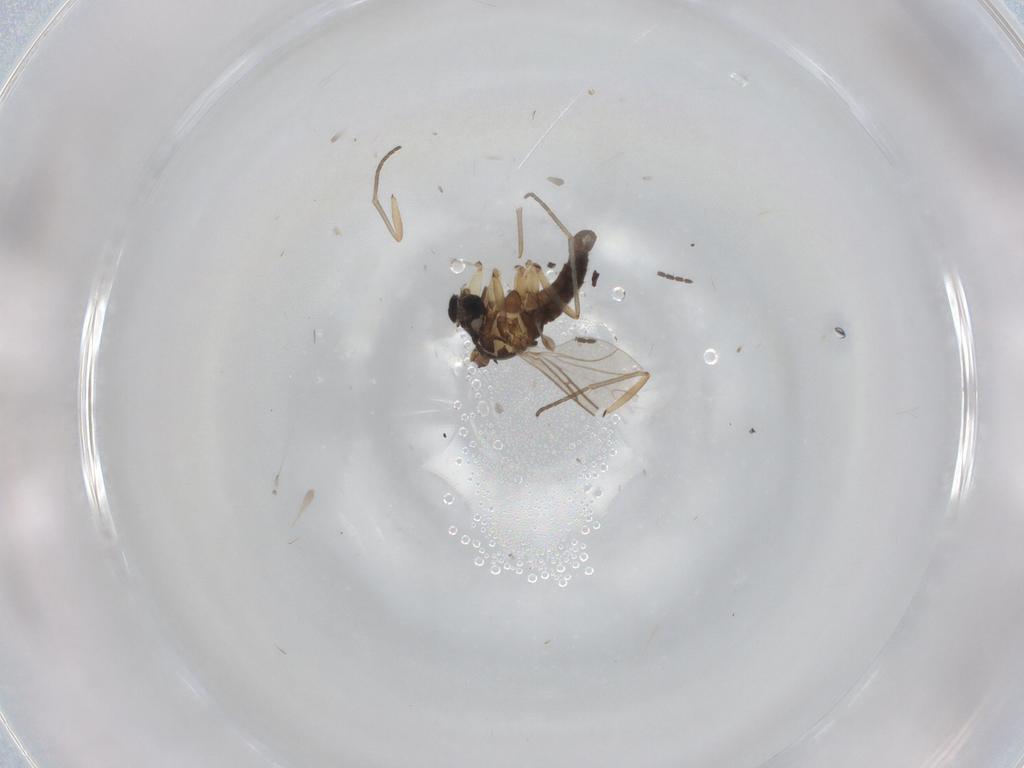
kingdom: Animalia
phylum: Arthropoda
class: Insecta
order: Diptera
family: Sciaridae
